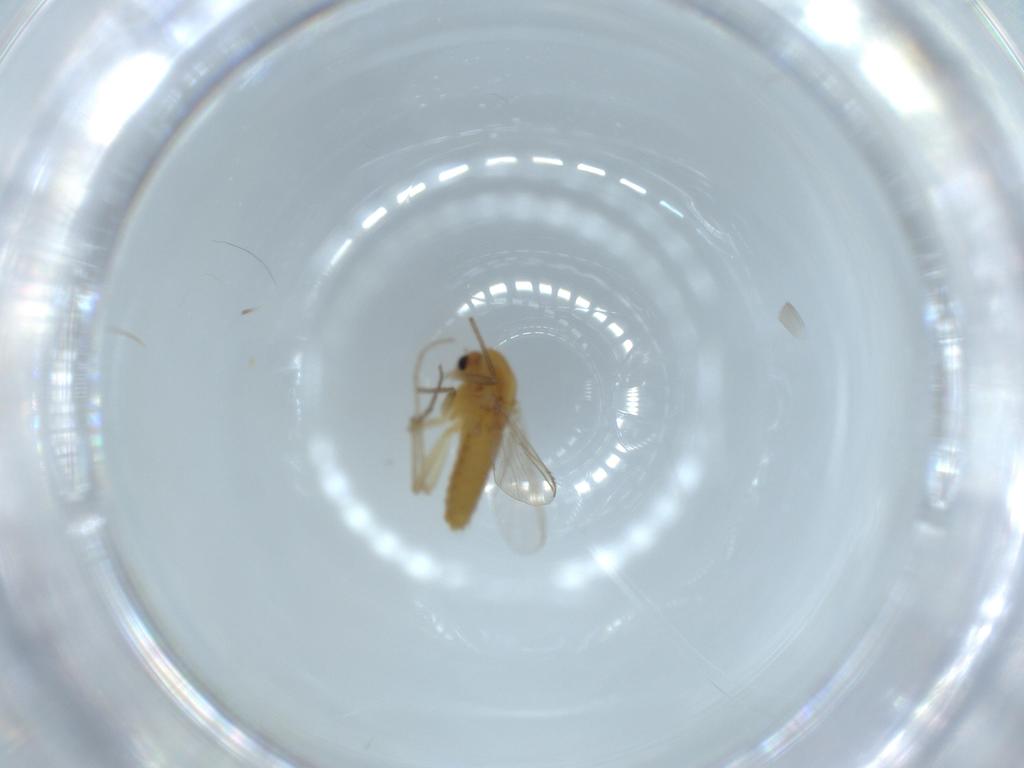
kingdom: Animalia
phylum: Arthropoda
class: Insecta
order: Diptera
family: Chironomidae
